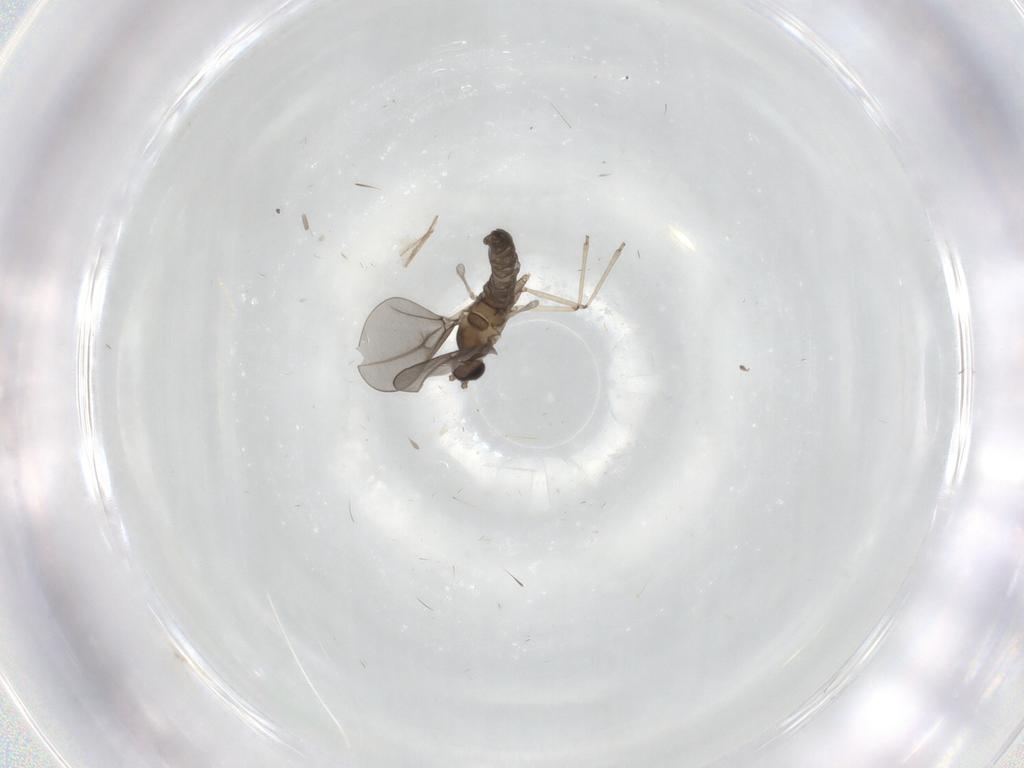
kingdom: Animalia
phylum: Arthropoda
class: Insecta
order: Diptera
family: Cecidomyiidae
